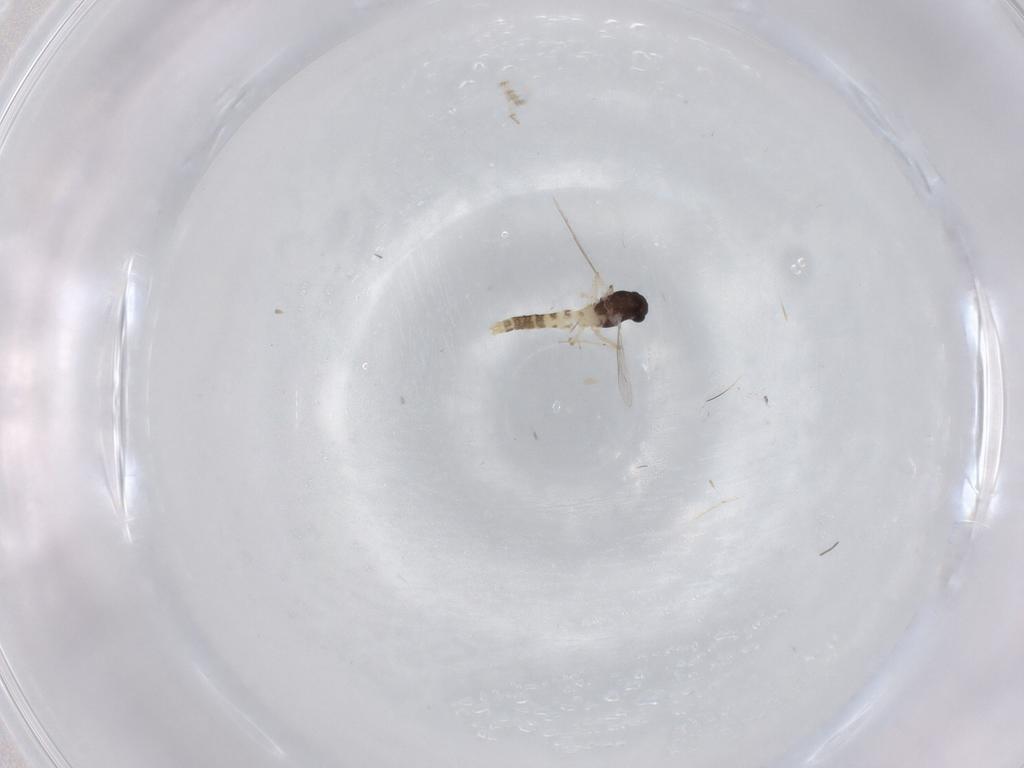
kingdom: Animalia
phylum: Arthropoda
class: Insecta
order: Diptera
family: Chironomidae
